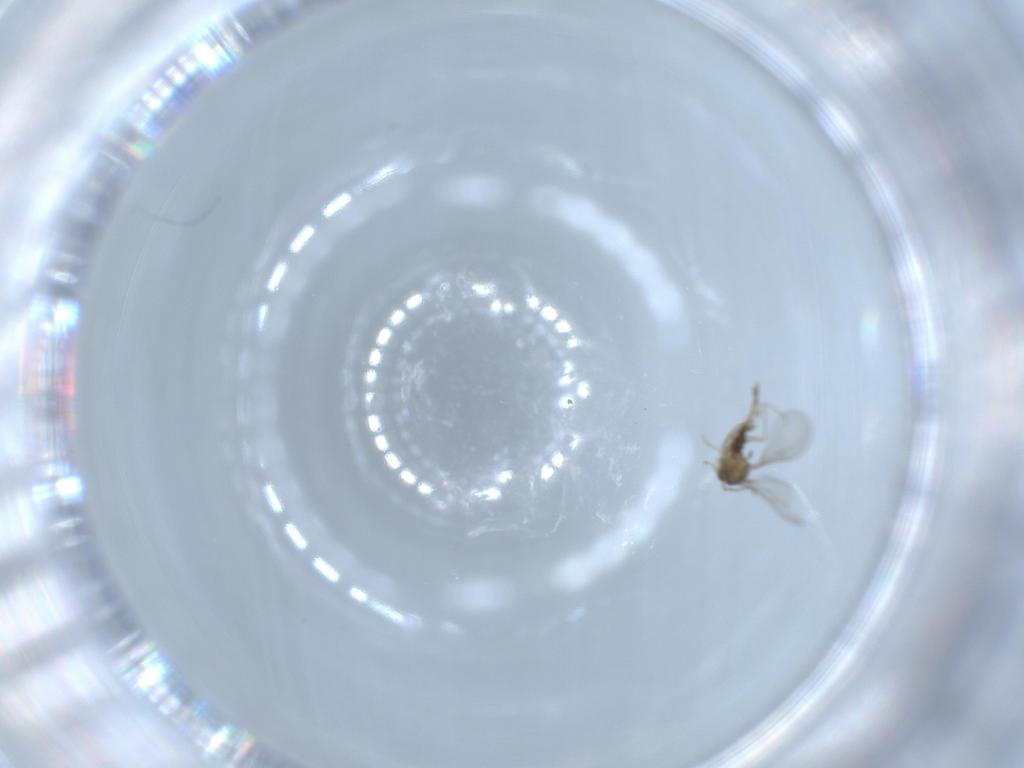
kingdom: Animalia
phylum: Arthropoda
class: Insecta
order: Diptera
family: Cecidomyiidae
